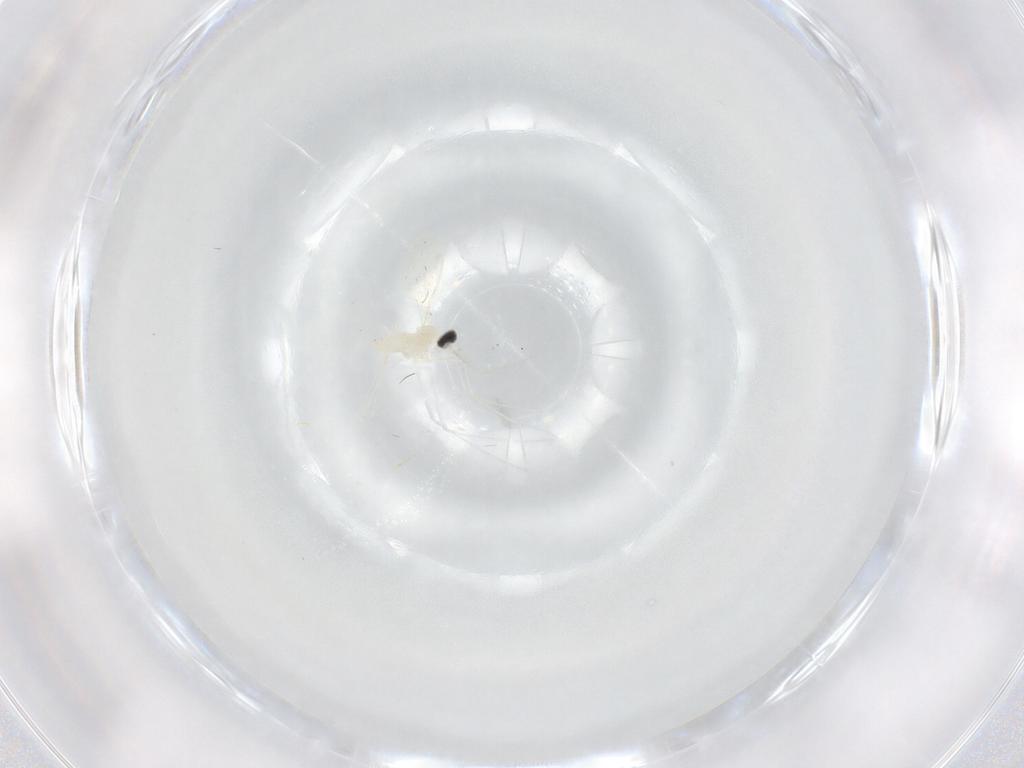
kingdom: Animalia
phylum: Arthropoda
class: Insecta
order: Diptera
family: Cecidomyiidae
